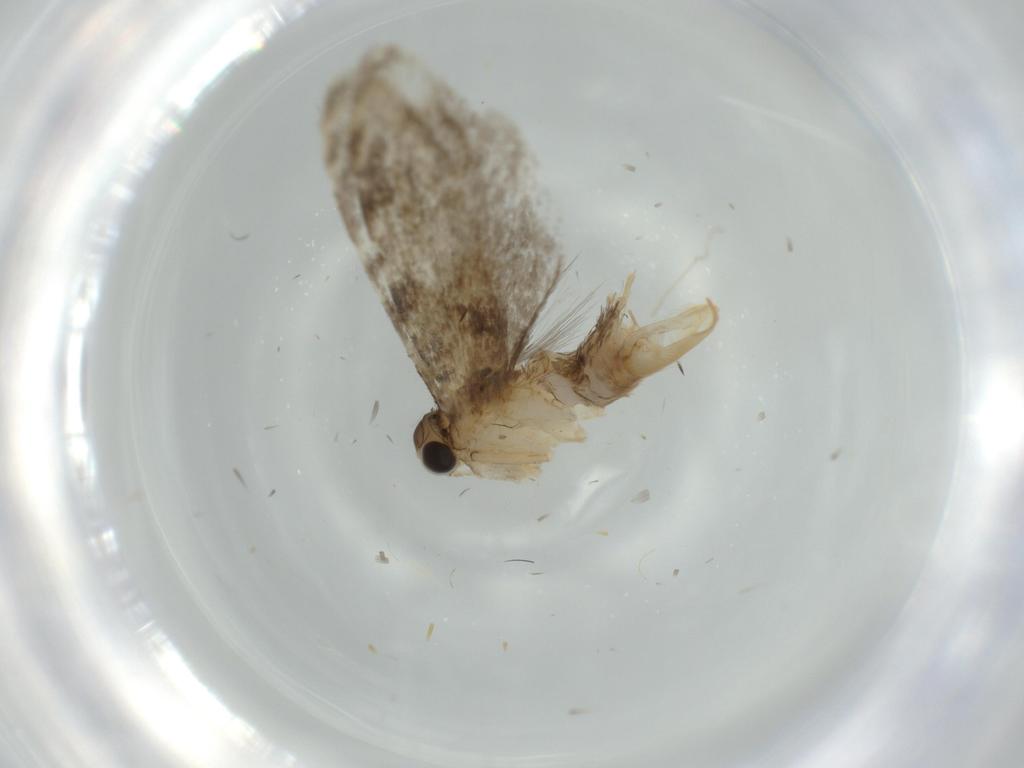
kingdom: Animalia
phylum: Arthropoda
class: Insecta
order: Lepidoptera
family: Tineidae
